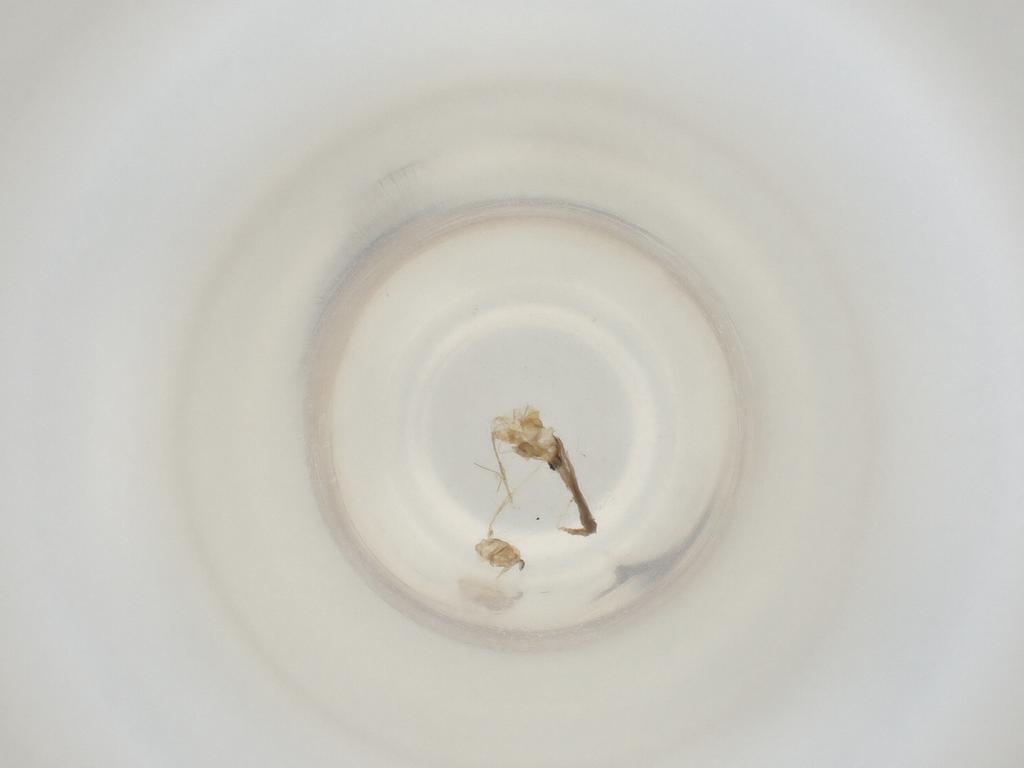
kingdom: Animalia
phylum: Arthropoda
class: Insecta
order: Diptera
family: Cecidomyiidae
